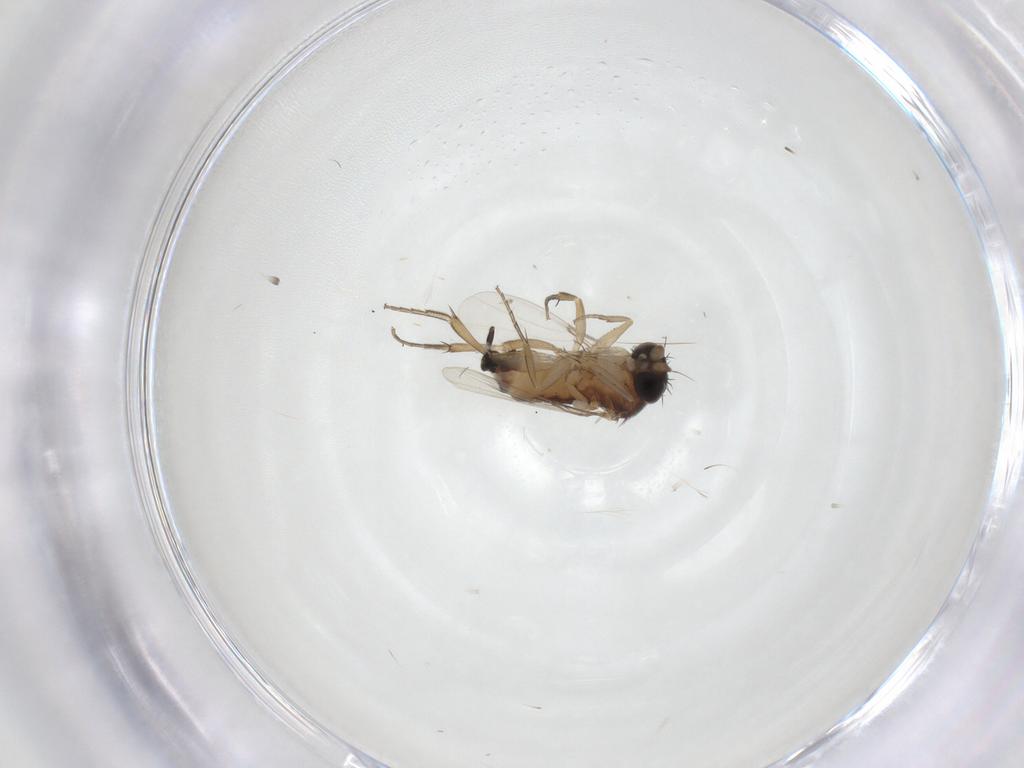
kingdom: Animalia
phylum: Arthropoda
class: Insecta
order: Diptera
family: Phoridae
